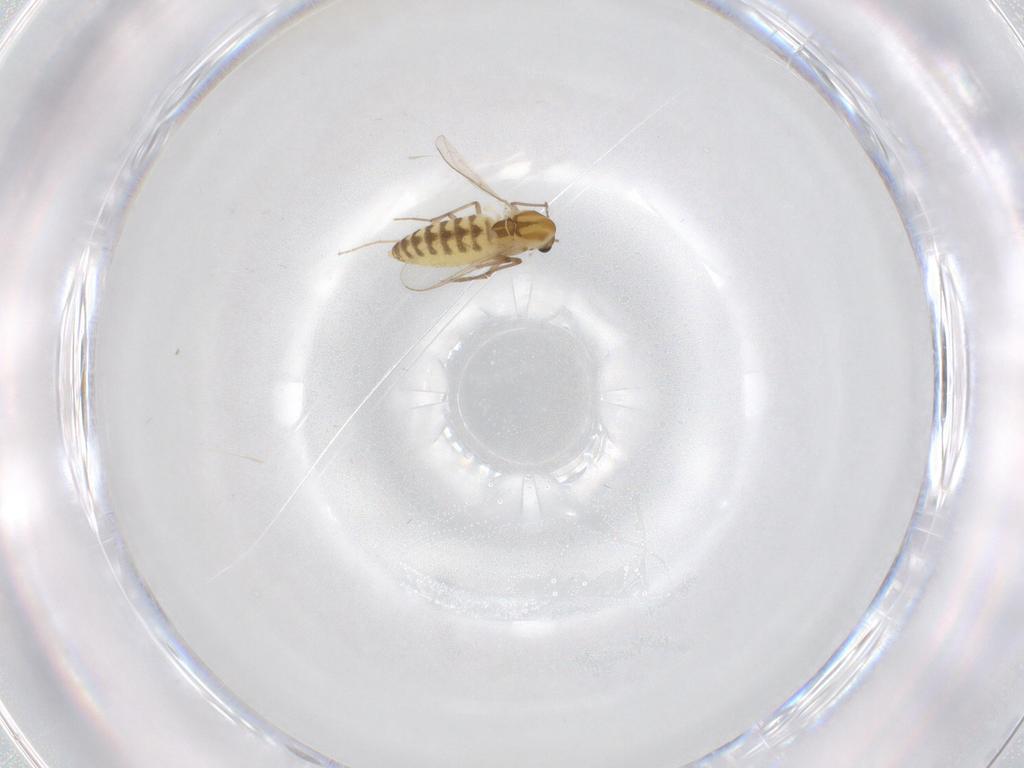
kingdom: Animalia
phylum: Arthropoda
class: Insecta
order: Diptera
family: Chironomidae
